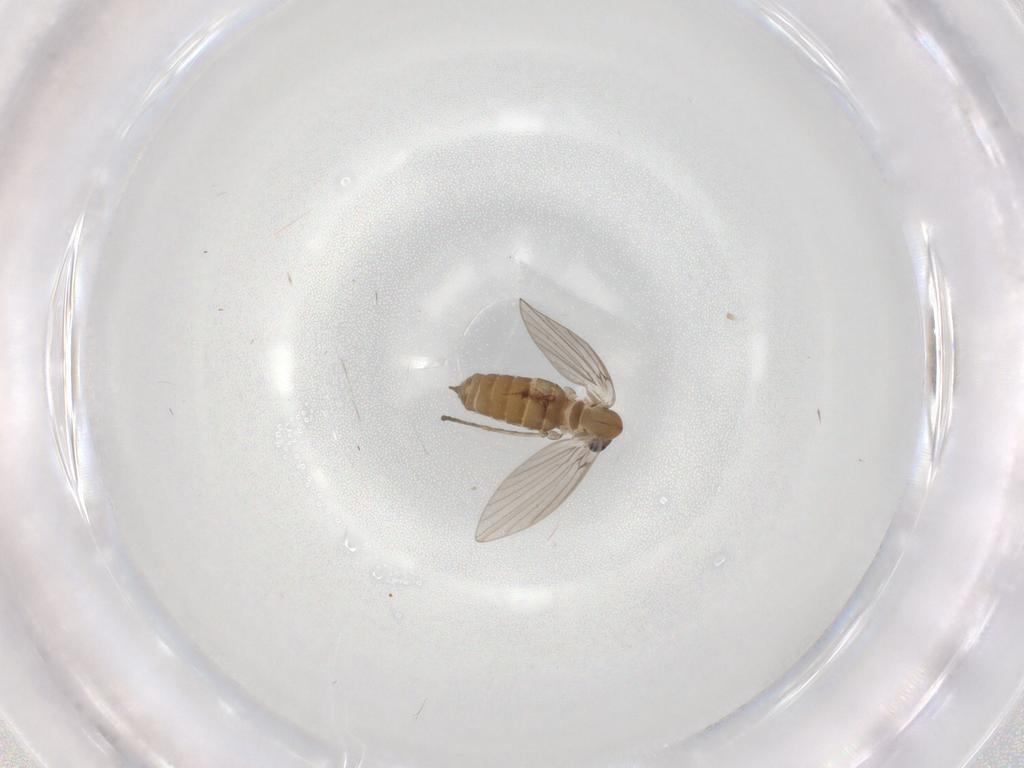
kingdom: Animalia
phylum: Arthropoda
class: Insecta
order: Diptera
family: Psychodidae
